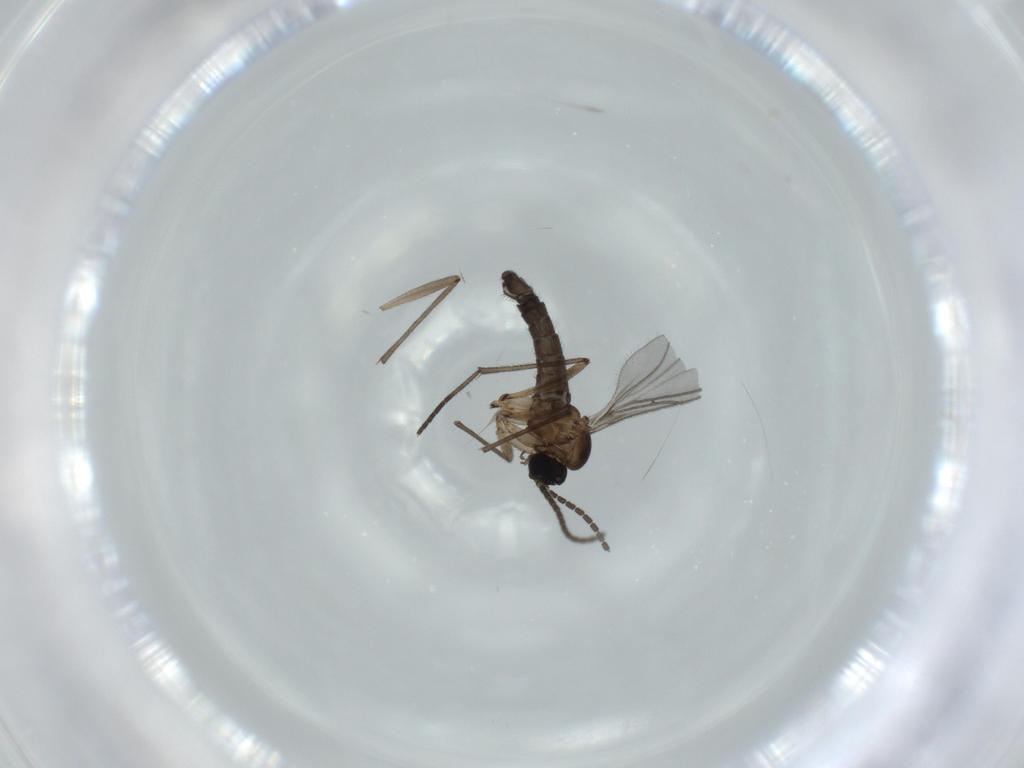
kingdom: Animalia
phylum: Arthropoda
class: Insecta
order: Diptera
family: Sciaridae
